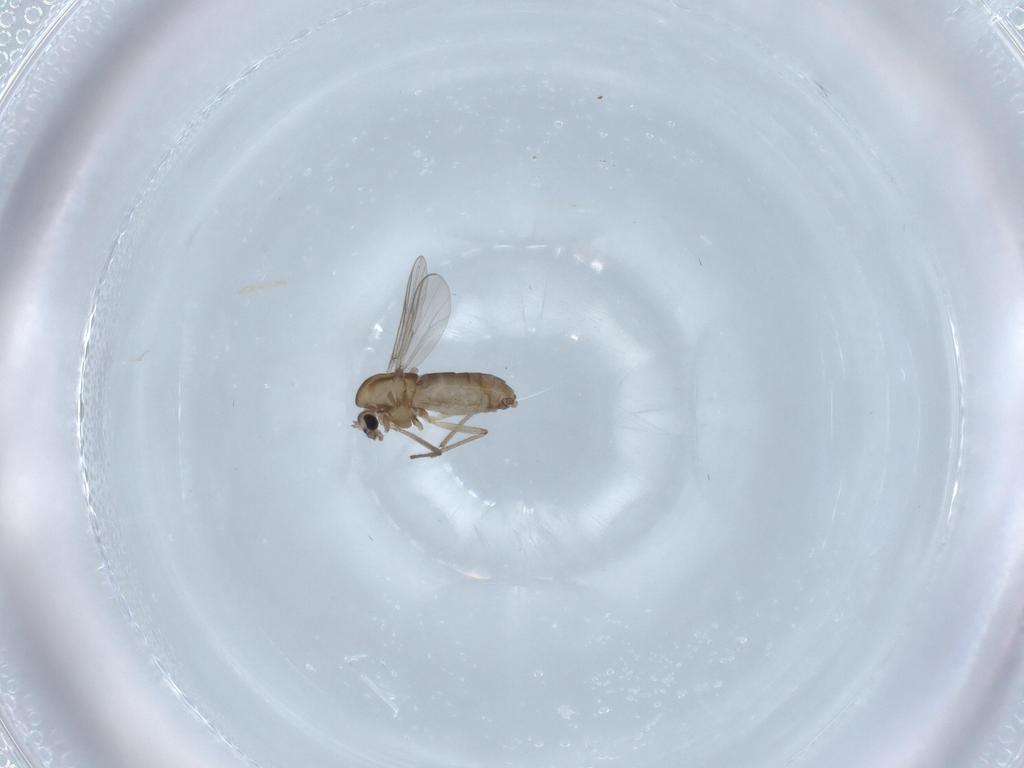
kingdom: Animalia
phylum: Arthropoda
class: Insecta
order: Diptera
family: Chironomidae
